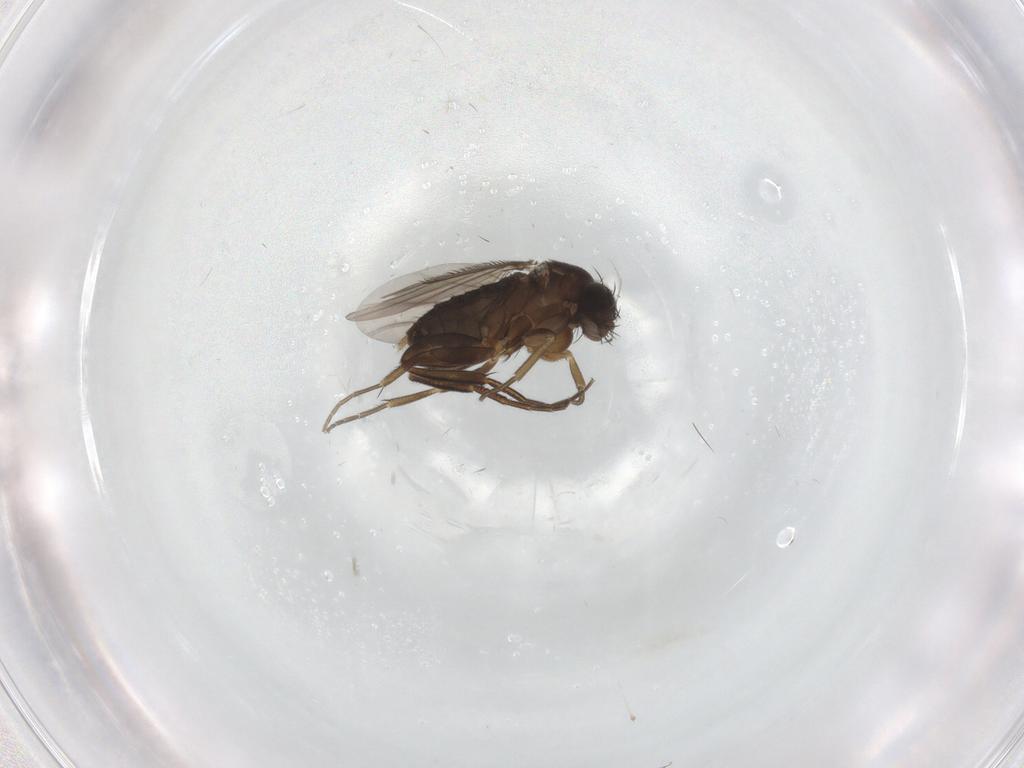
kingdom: Animalia
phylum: Arthropoda
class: Insecta
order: Diptera
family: Phoridae
